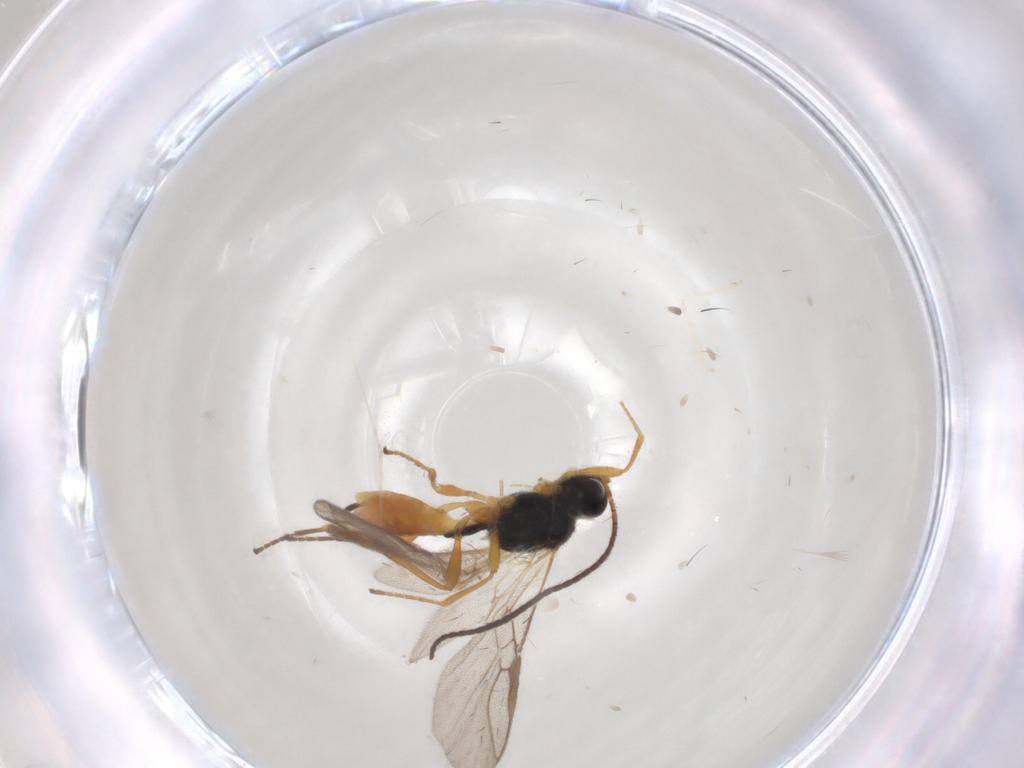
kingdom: Animalia
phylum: Arthropoda
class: Insecta
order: Hymenoptera
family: Braconidae
